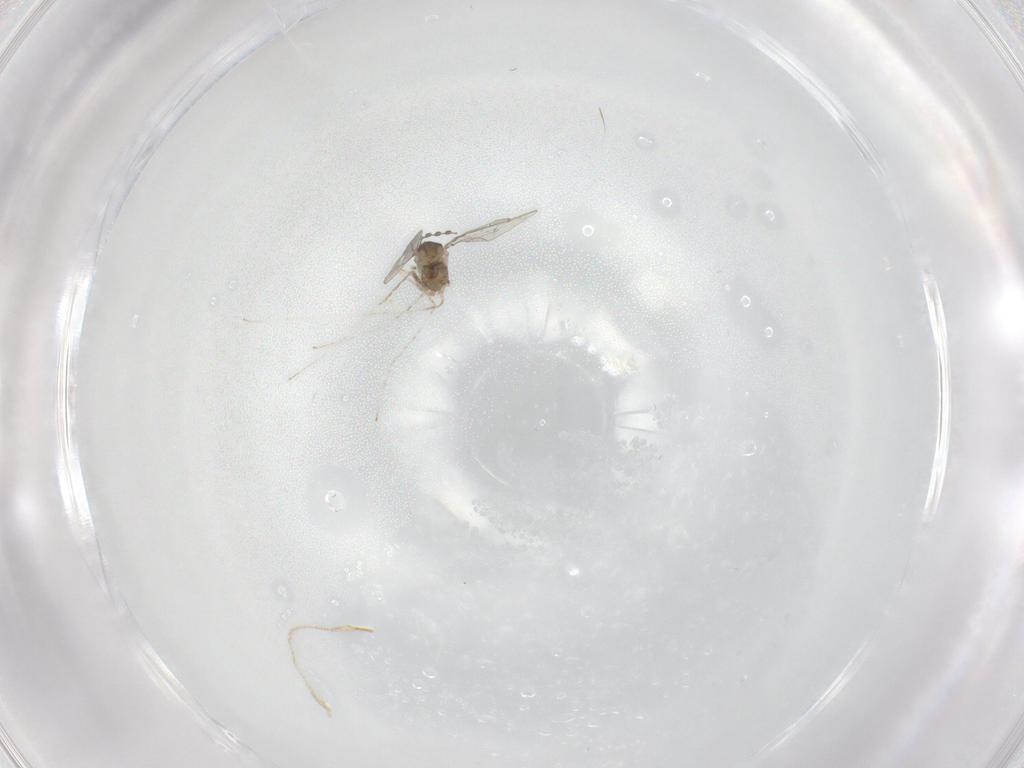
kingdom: Animalia
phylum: Arthropoda
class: Insecta
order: Diptera
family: Cecidomyiidae
